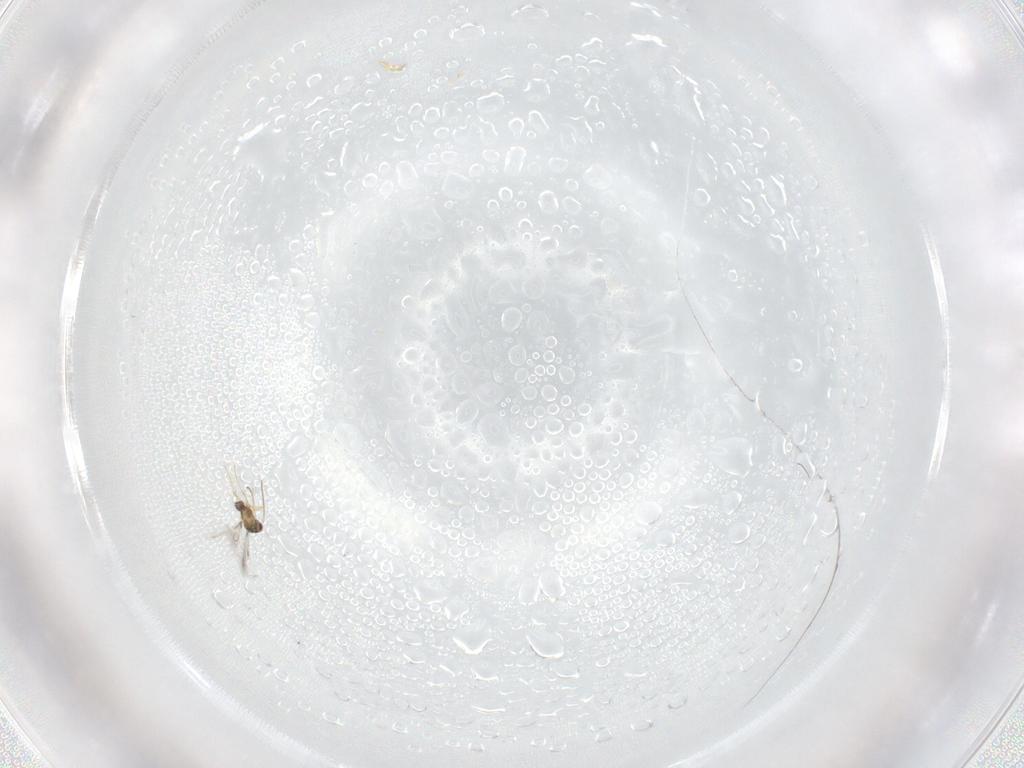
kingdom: Animalia
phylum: Arthropoda
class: Insecta
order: Hymenoptera
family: Mymaridae
